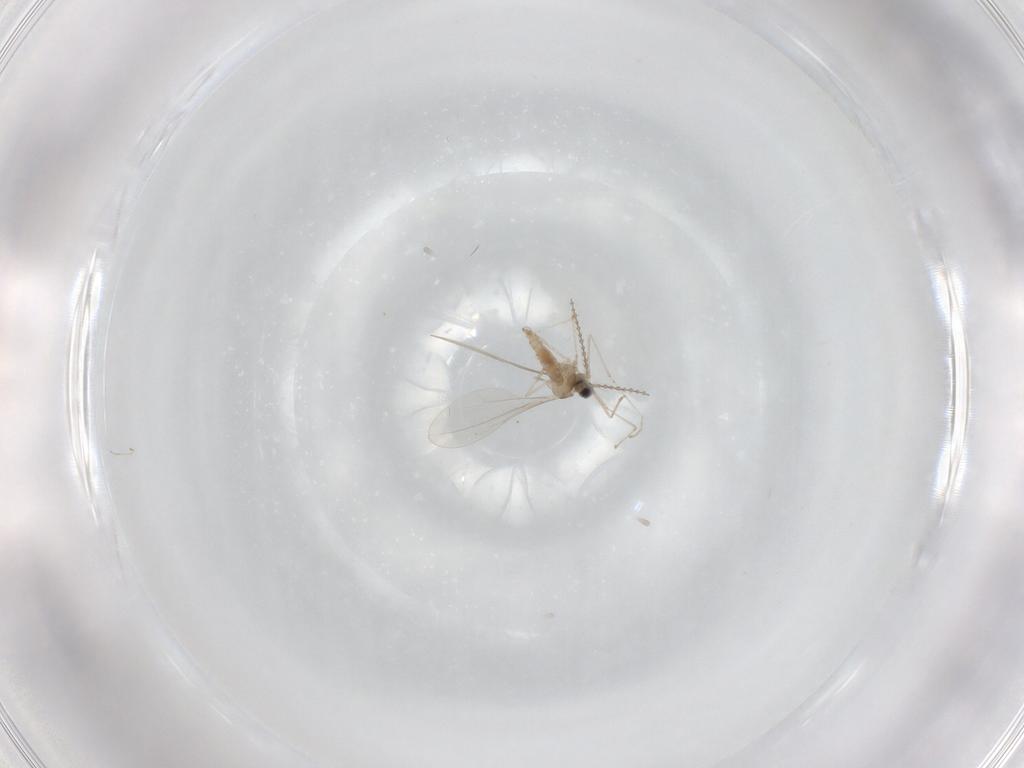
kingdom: Animalia
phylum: Arthropoda
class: Insecta
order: Diptera
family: Cecidomyiidae
